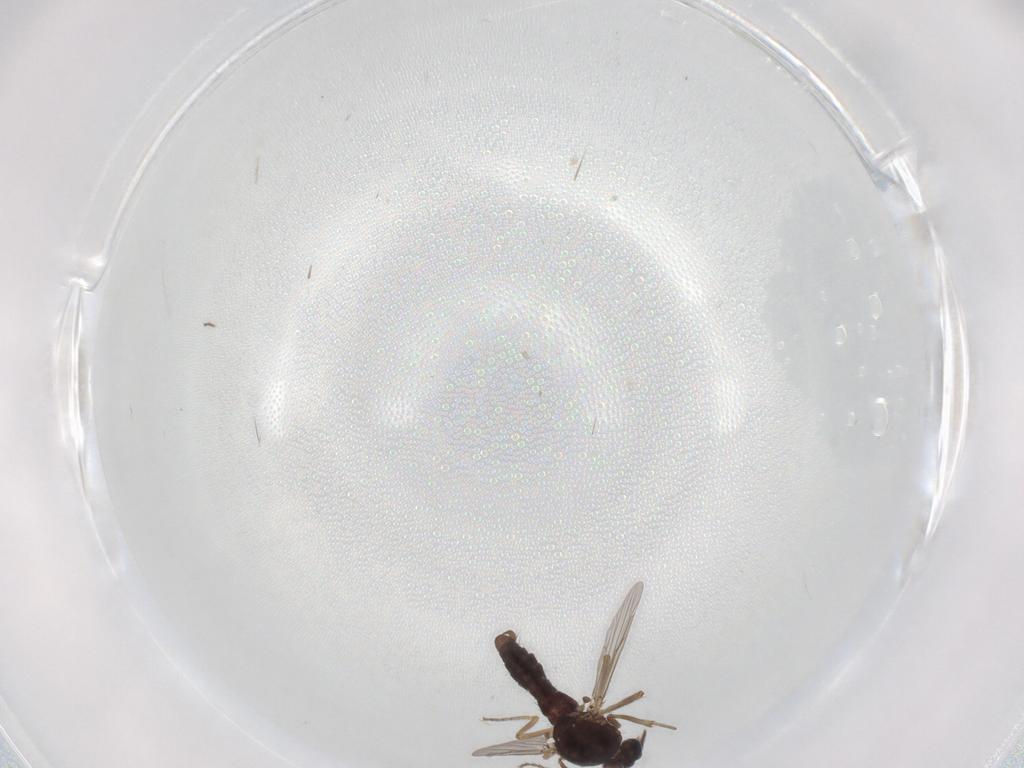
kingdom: Animalia
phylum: Arthropoda
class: Insecta
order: Diptera
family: Ceratopogonidae
